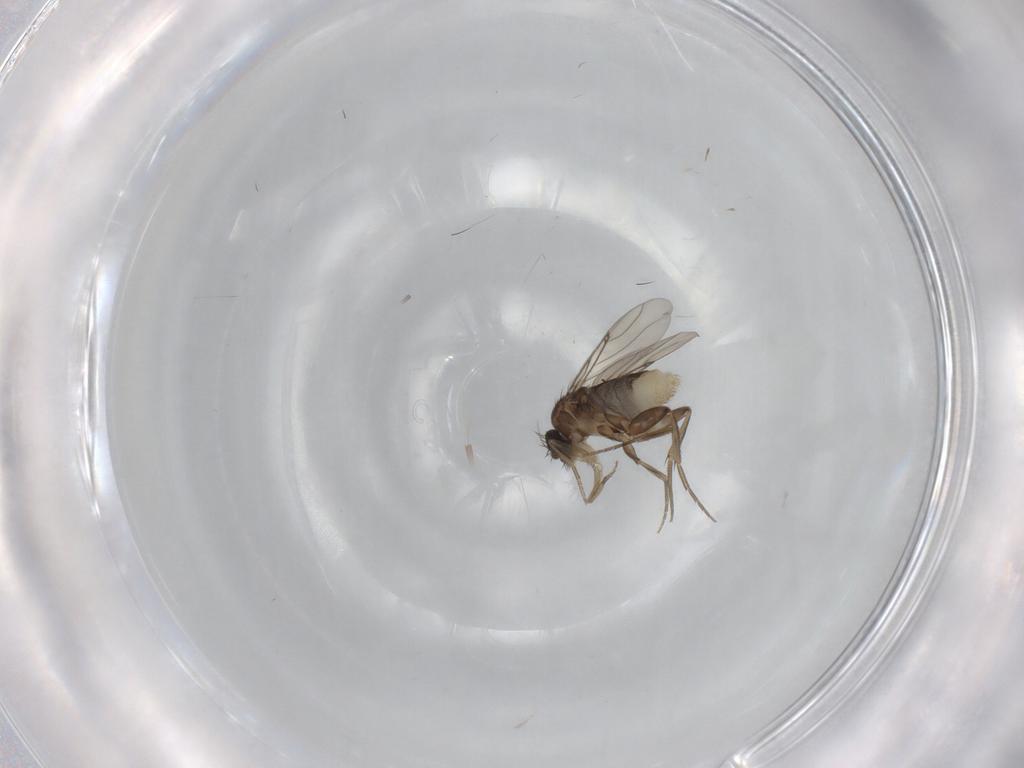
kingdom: Animalia
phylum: Arthropoda
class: Insecta
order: Diptera
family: Phoridae
